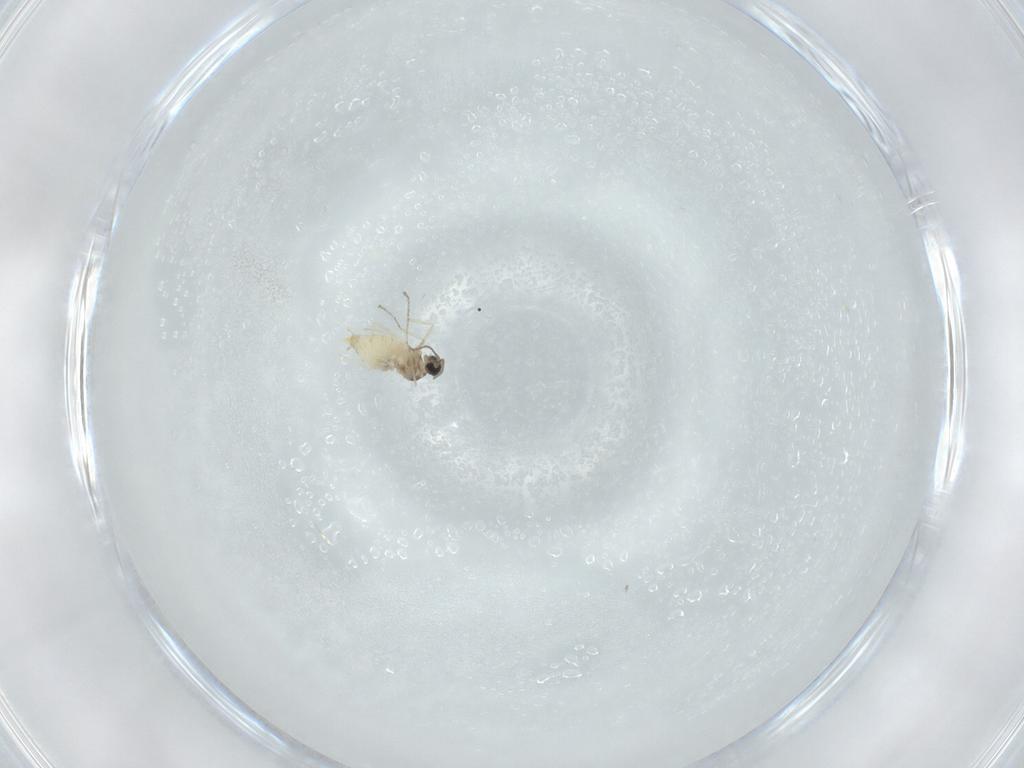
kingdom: Animalia
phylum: Arthropoda
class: Insecta
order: Diptera
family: Cecidomyiidae
